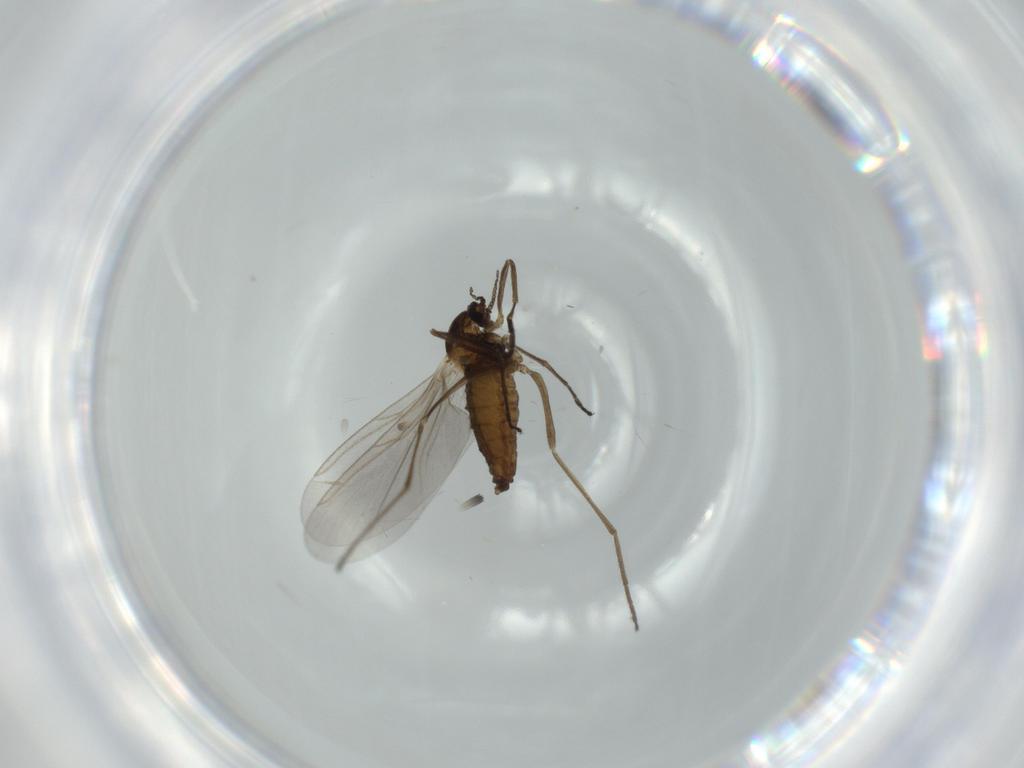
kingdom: Animalia
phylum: Arthropoda
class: Insecta
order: Diptera
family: Cecidomyiidae
